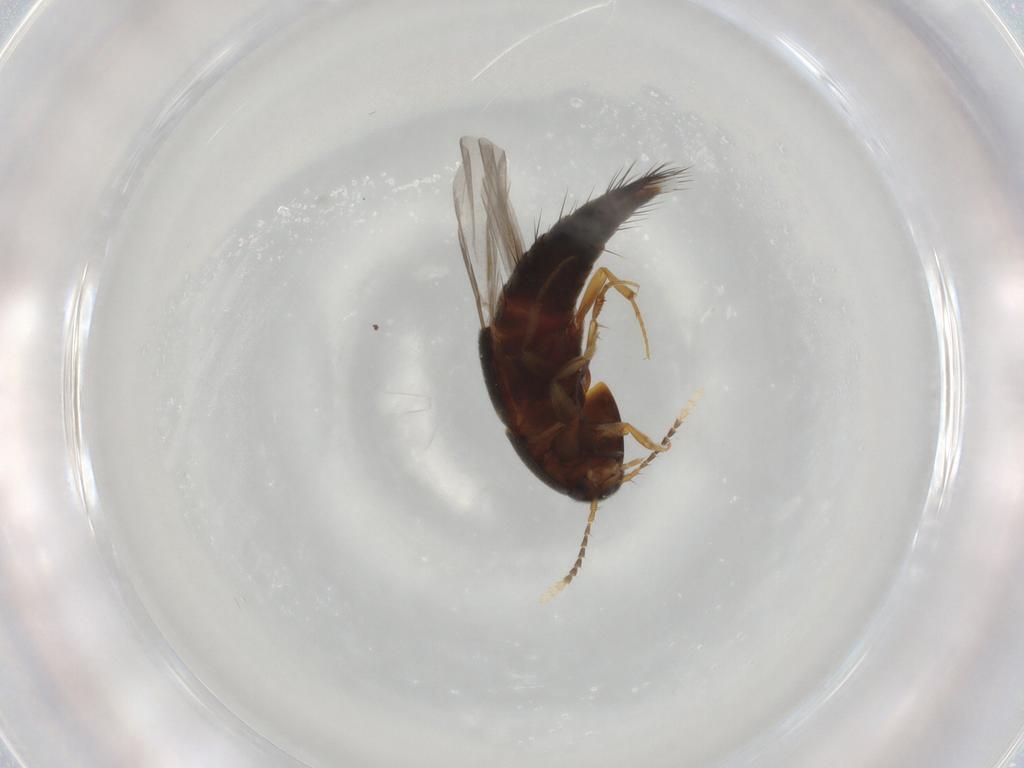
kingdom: Animalia
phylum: Arthropoda
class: Insecta
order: Coleoptera
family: Staphylinidae
